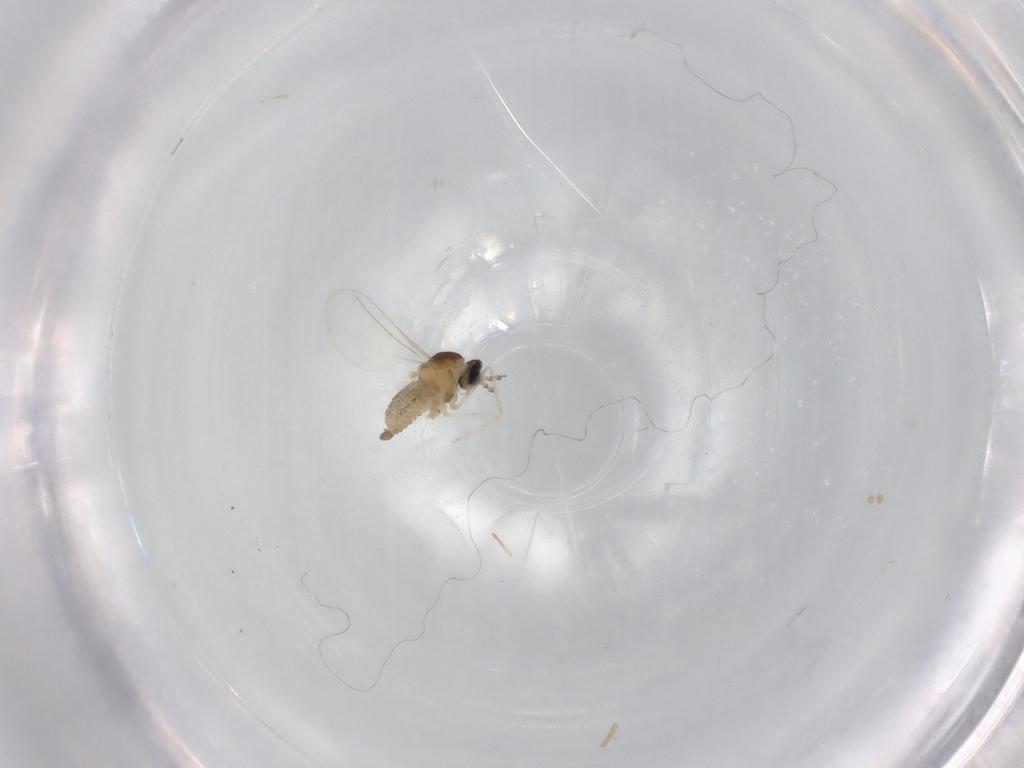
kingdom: Animalia
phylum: Arthropoda
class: Insecta
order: Diptera
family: Cecidomyiidae
